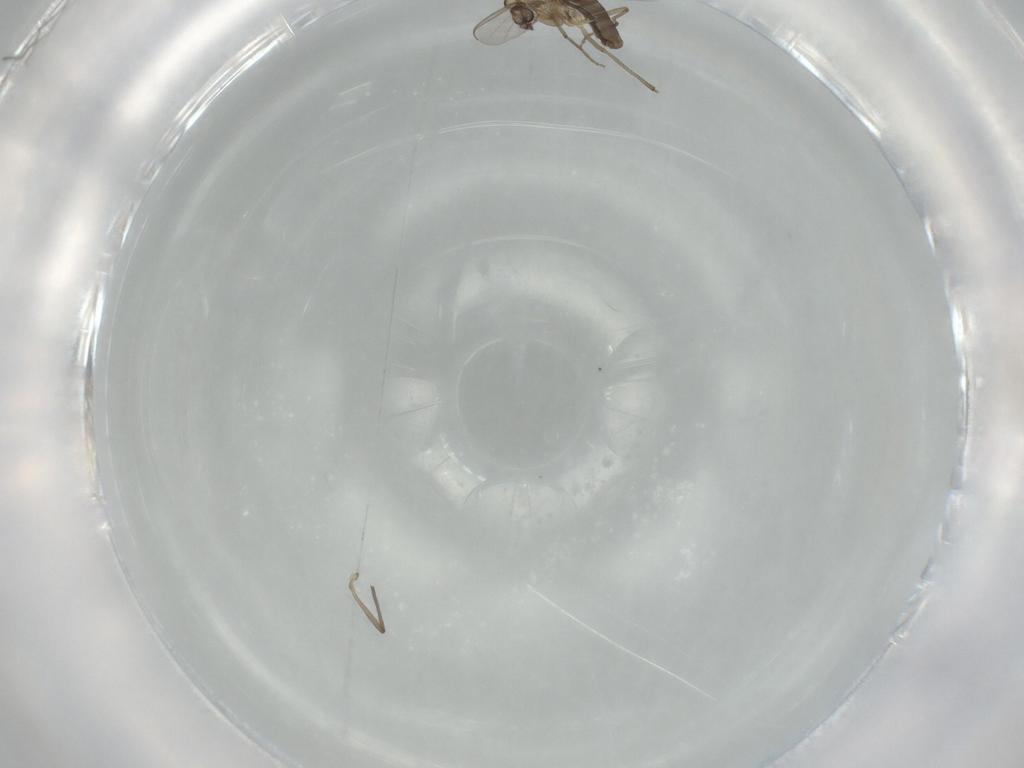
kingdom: Animalia
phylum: Arthropoda
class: Insecta
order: Diptera
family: Chironomidae
